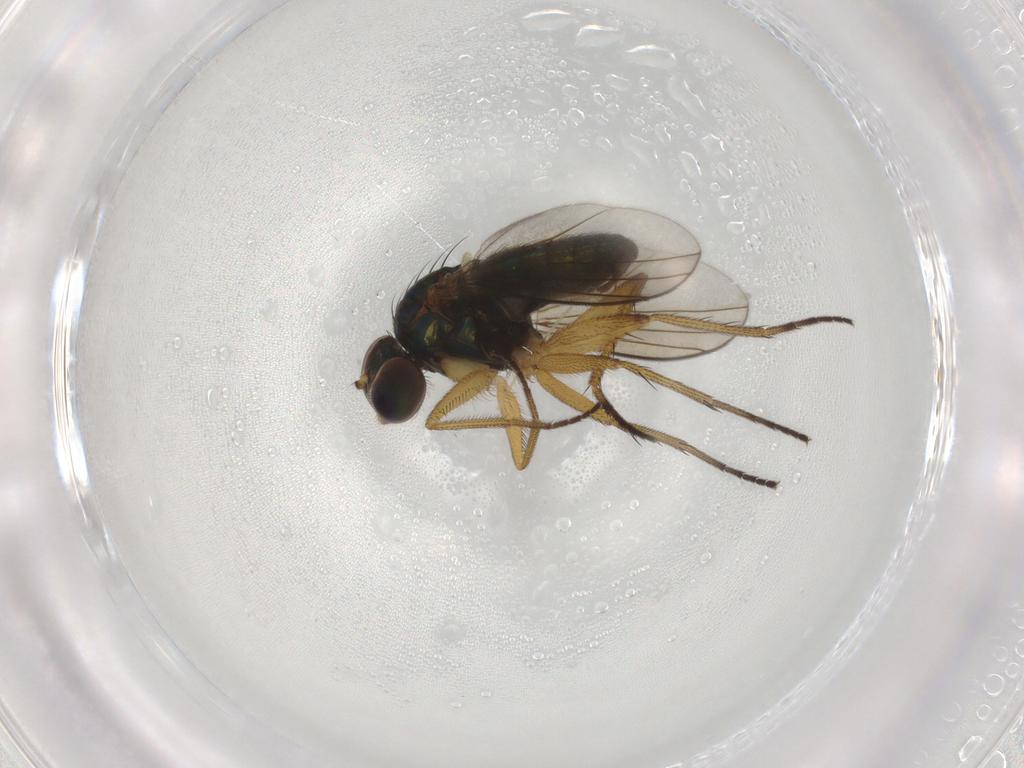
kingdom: Animalia
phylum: Arthropoda
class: Insecta
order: Diptera
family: Dolichopodidae
